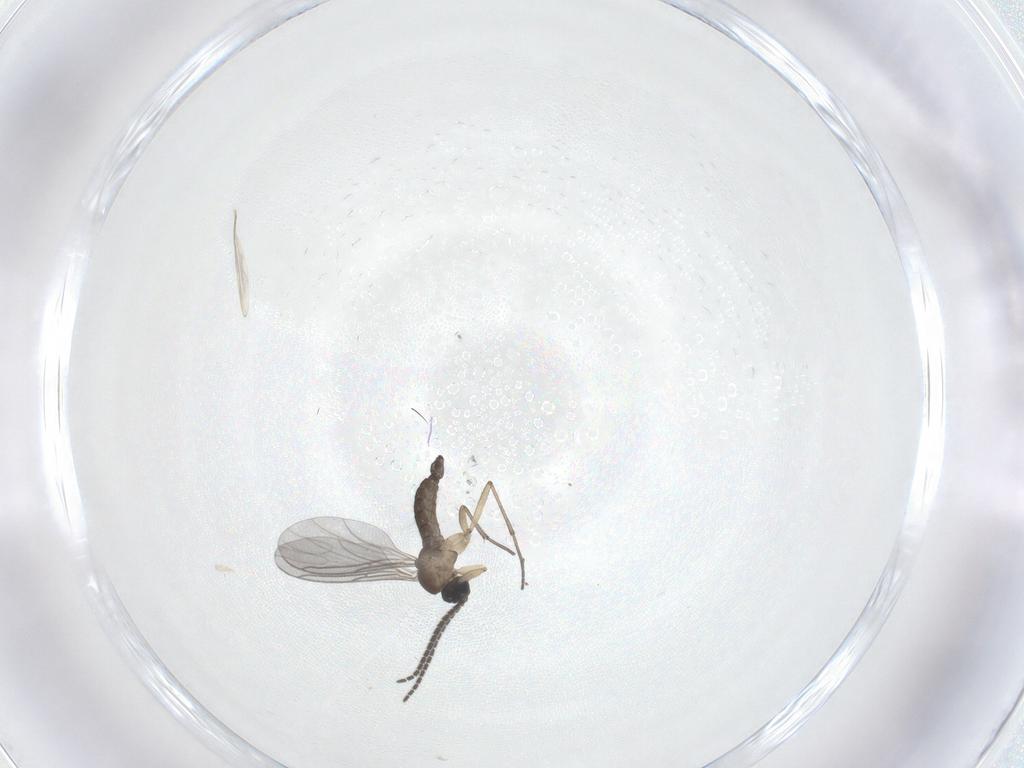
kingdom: Animalia
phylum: Arthropoda
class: Insecta
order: Diptera
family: Sciaridae
